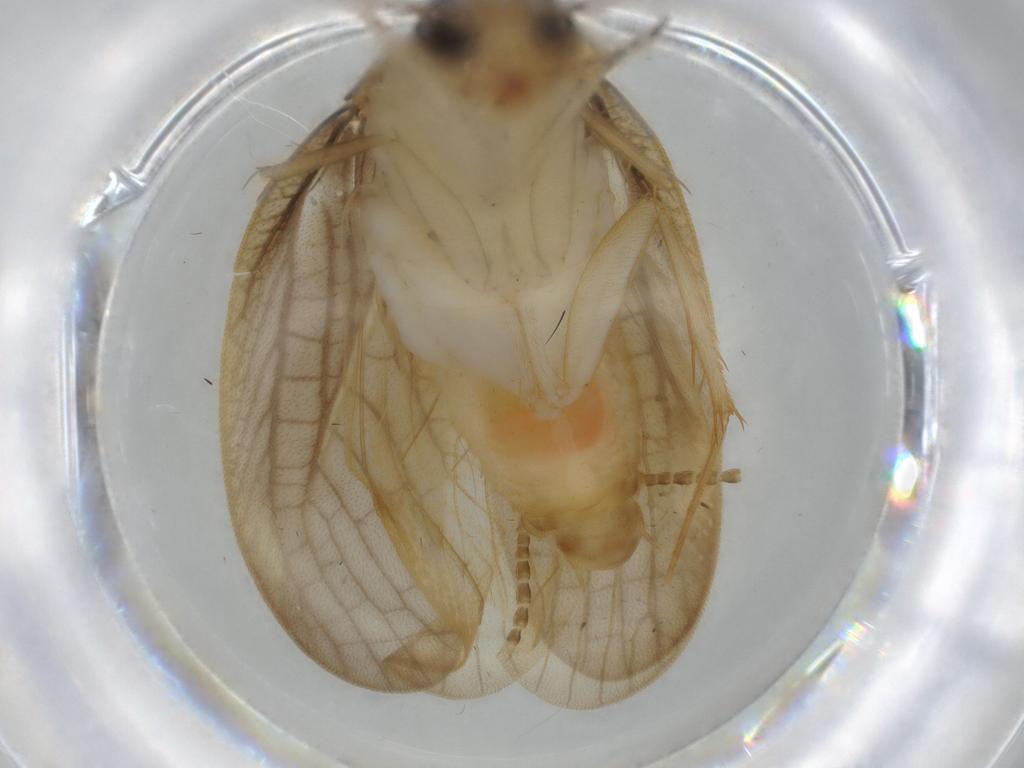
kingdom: Animalia
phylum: Arthropoda
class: Insecta
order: Blattodea
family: Ectobiidae
